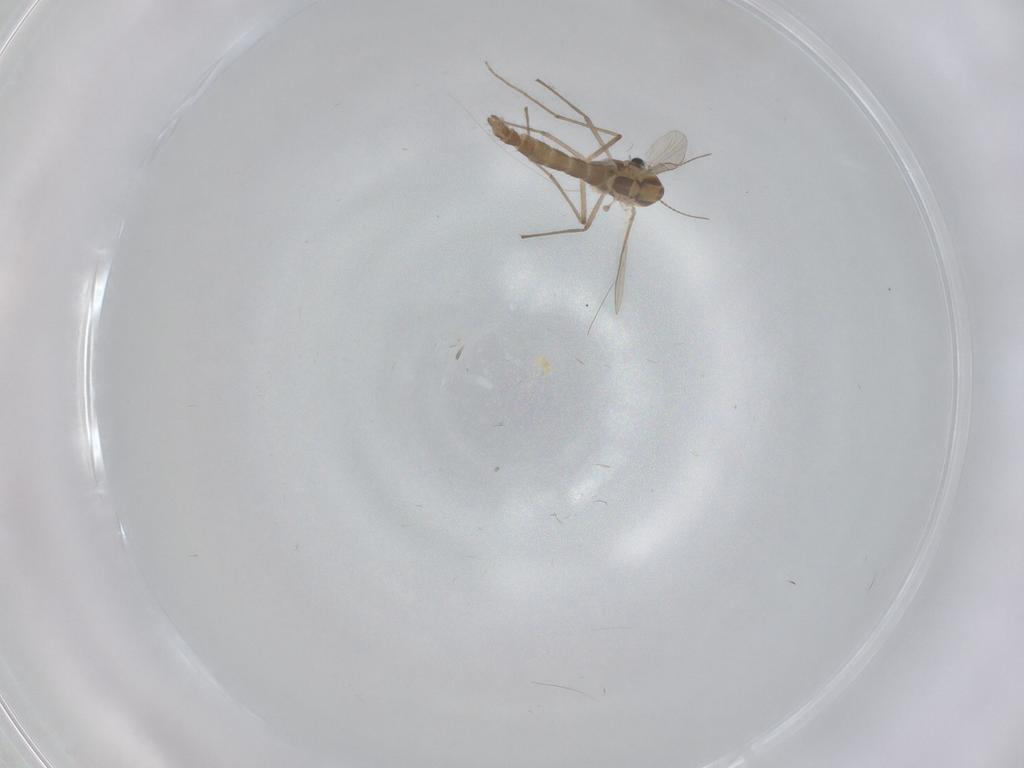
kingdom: Animalia
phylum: Arthropoda
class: Insecta
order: Diptera
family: Chironomidae
